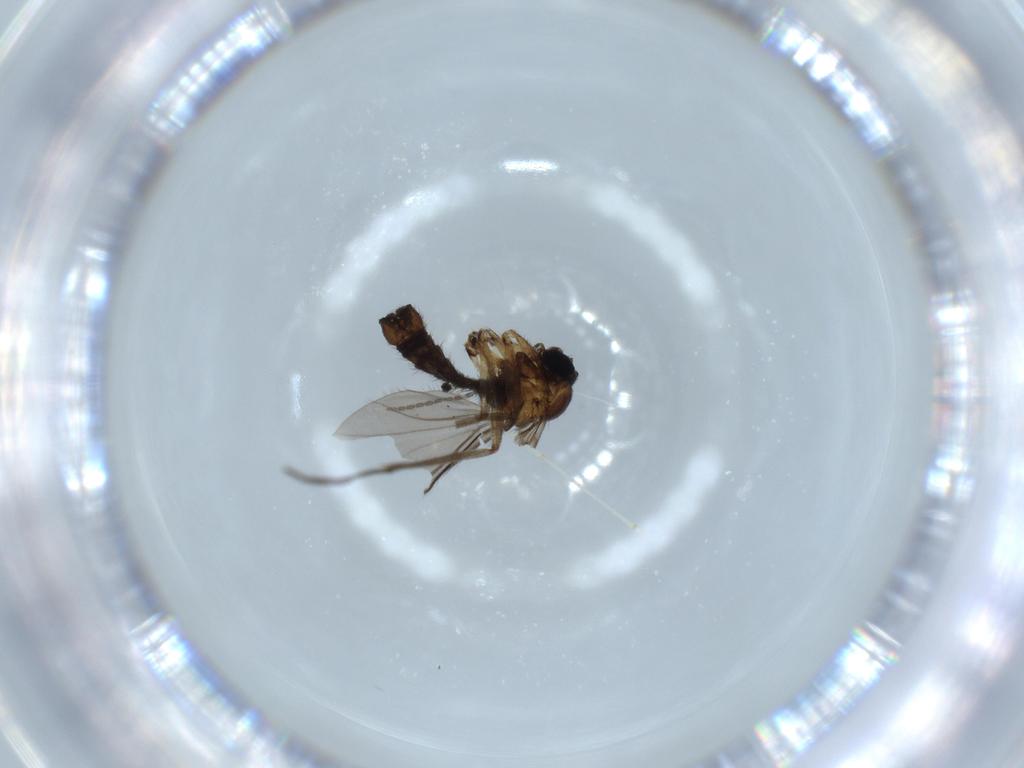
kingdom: Animalia
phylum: Arthropoda
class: Insecta
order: Diptera
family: Sciaridae
